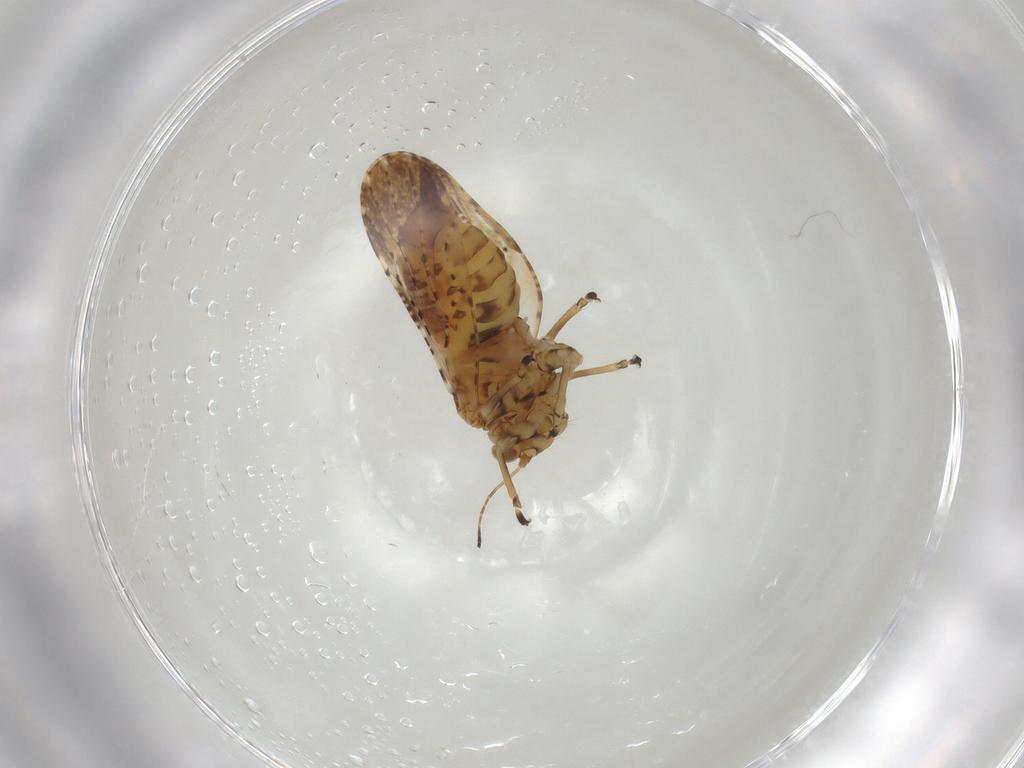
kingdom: Animalia
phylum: Arthropoda
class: Insecta
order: Hemiptera
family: Liviidae
